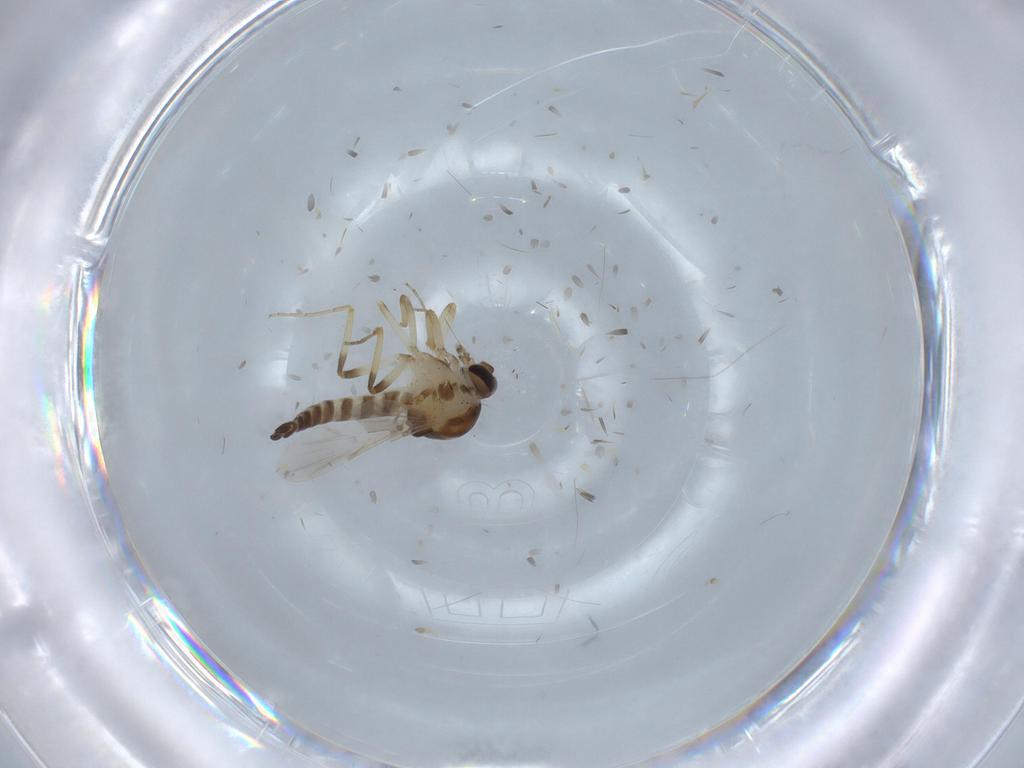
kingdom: Animalia
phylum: Arthropoda
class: Insecta
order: Diptera
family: Ceratopogonidae
